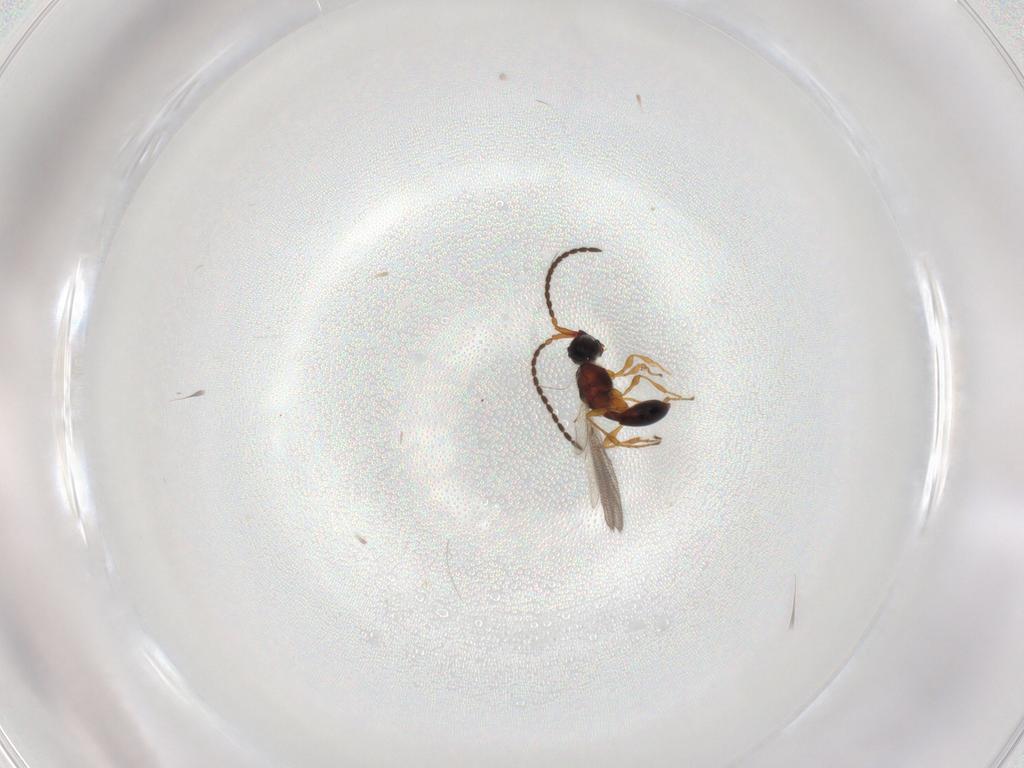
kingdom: Animalia
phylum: Arthropoda
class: Insecta
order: Hymenoptera
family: Diapriidae
